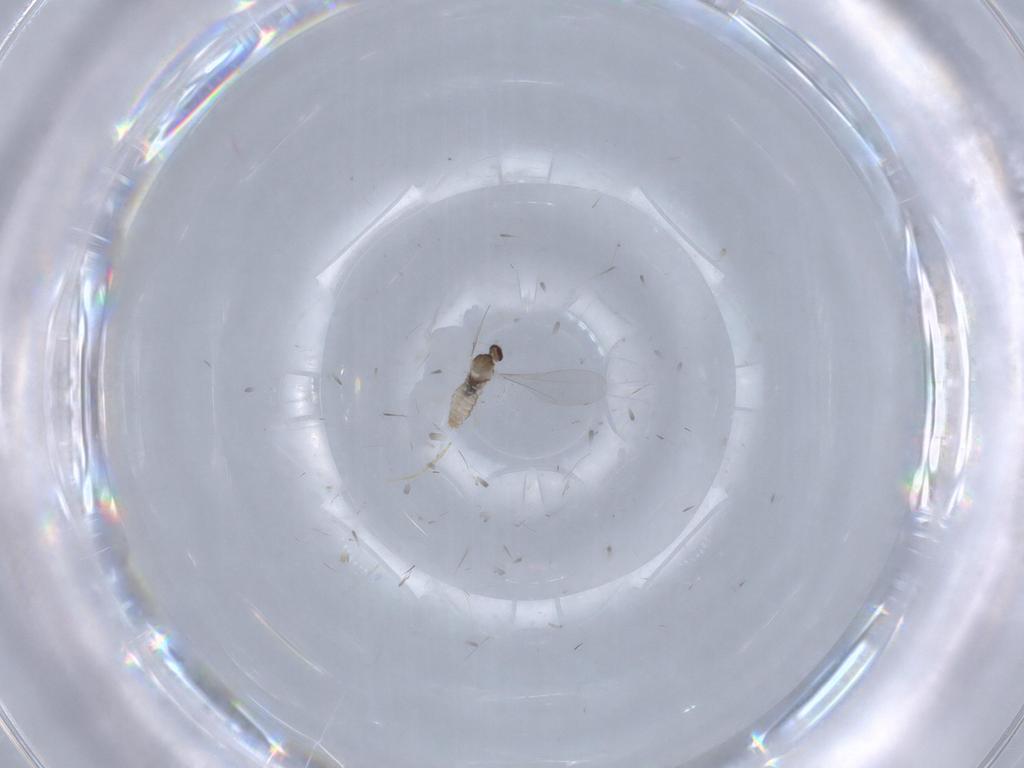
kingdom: Animalia
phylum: Arthropoda
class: Insecta
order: Diptera
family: Cecidomyiidae
